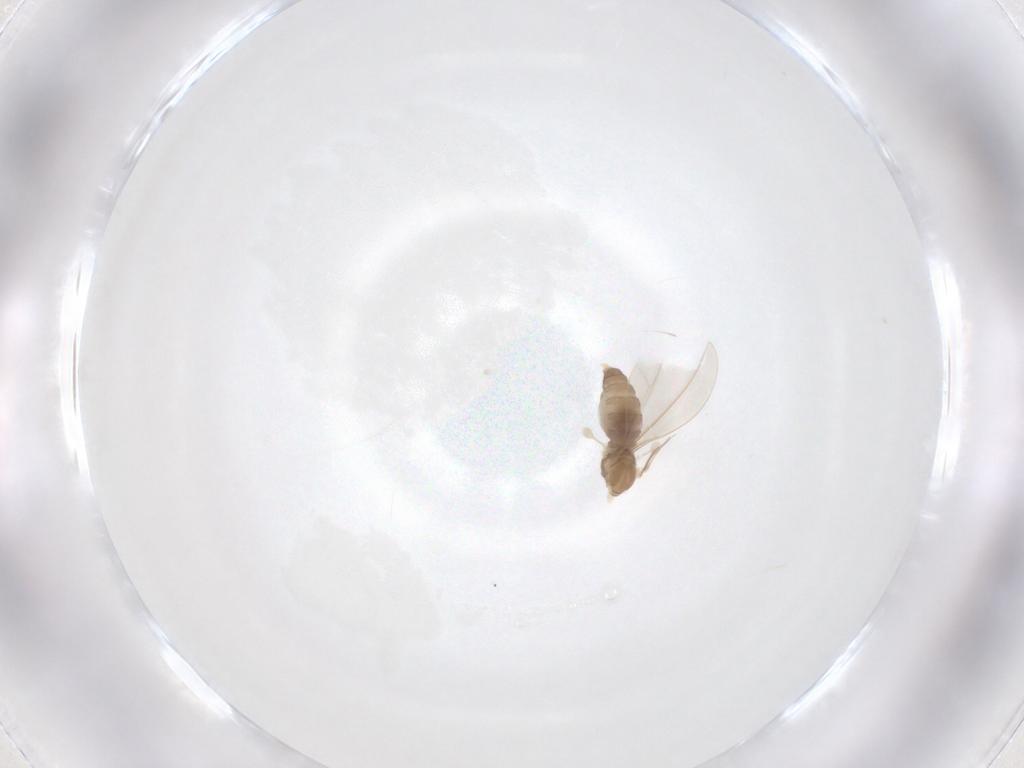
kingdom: Animalia
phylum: Arthropoda
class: Insecta
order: Diptera
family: Cecidomyiidae
